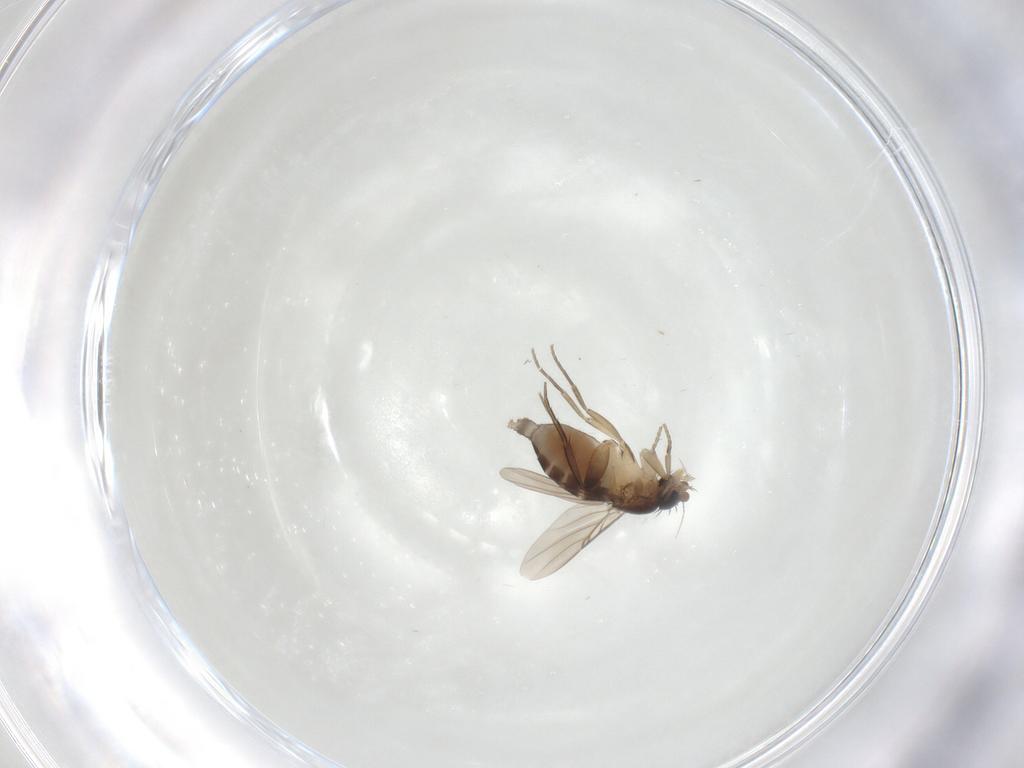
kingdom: Animalia
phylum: Arthropoda
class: Insecta
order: Diptera
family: Phoridae
